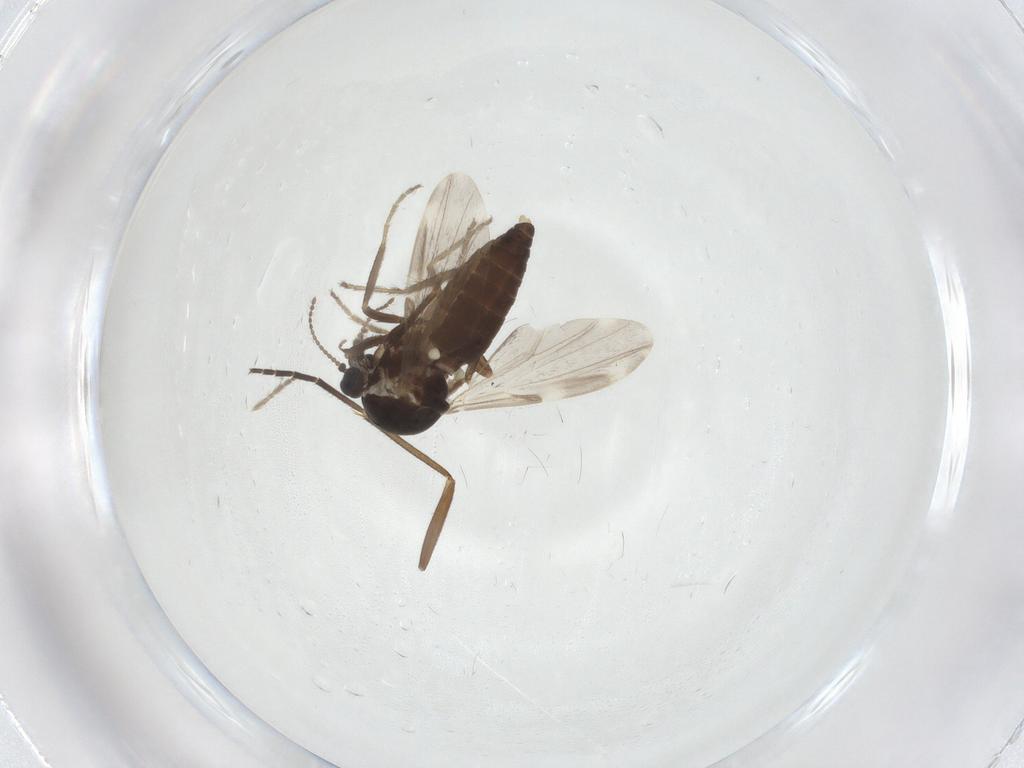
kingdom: Animalia
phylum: Arthropoda
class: Insecta
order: Diptera
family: Ceratopogonidae
